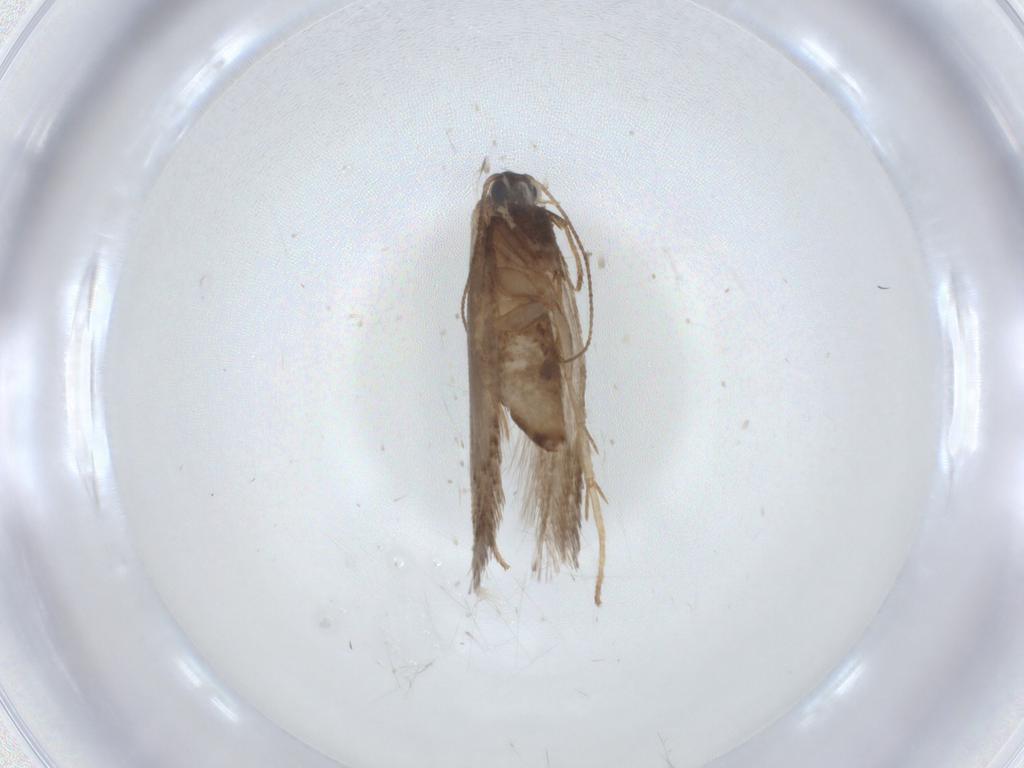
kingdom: Animalia
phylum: Arthropoda
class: Insecta
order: Lepidoptera
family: Nepticulidae
